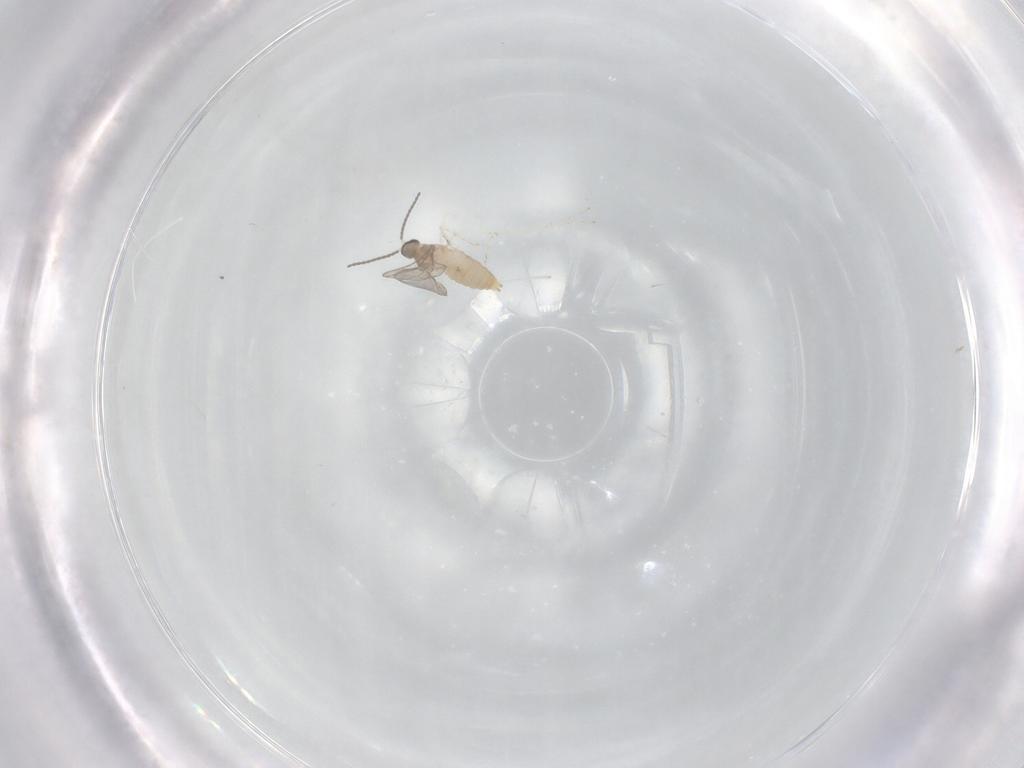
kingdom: Animalia
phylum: Arthropoda
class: Insecta
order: Diptera
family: Cecidomyiidae
